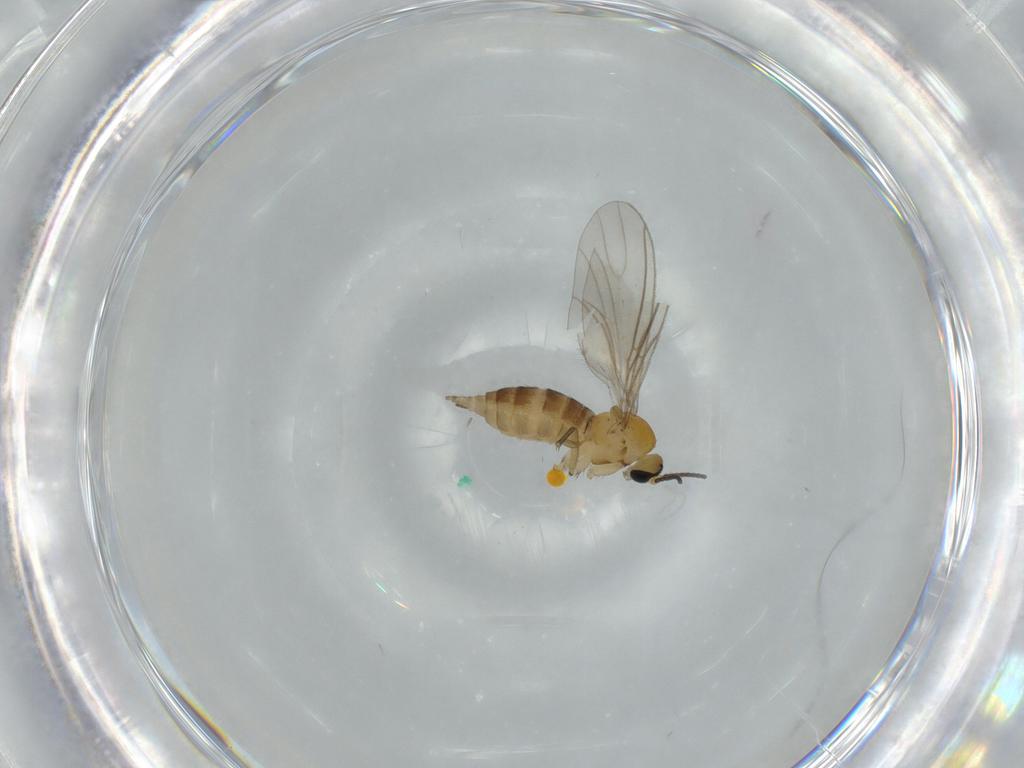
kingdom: Animalia
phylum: Arthropoda
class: Insecta
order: Diptera
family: Sciaridae
